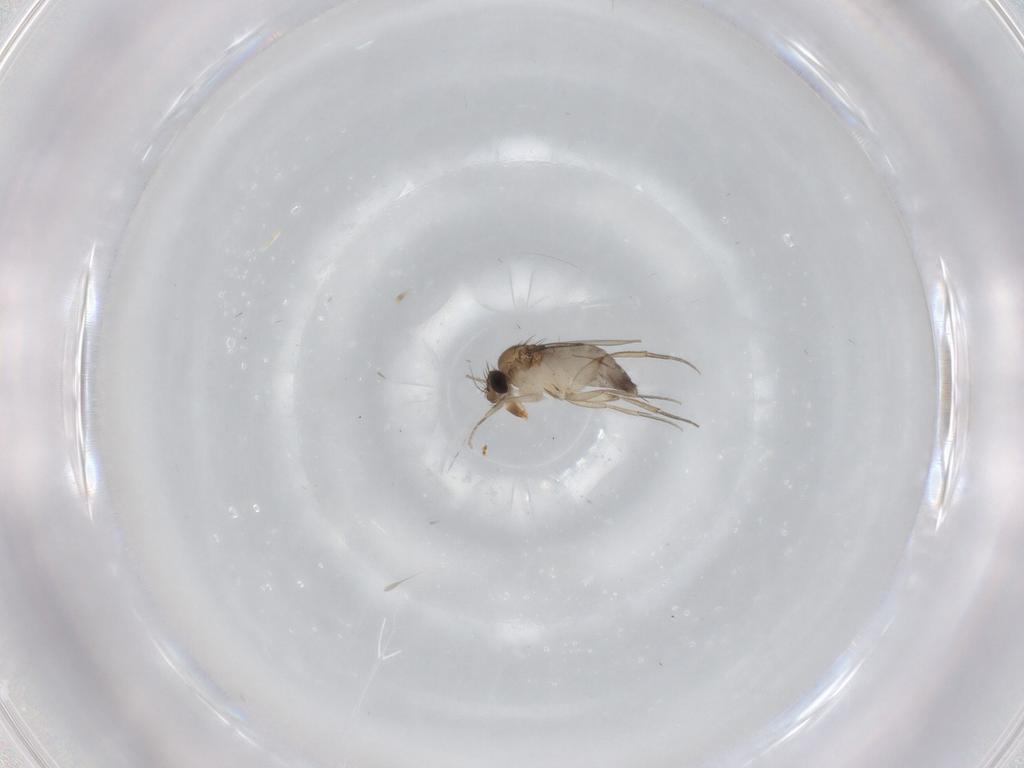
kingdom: Animalia
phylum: Arthropoda
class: Insecta
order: Diptera
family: Phoridae
